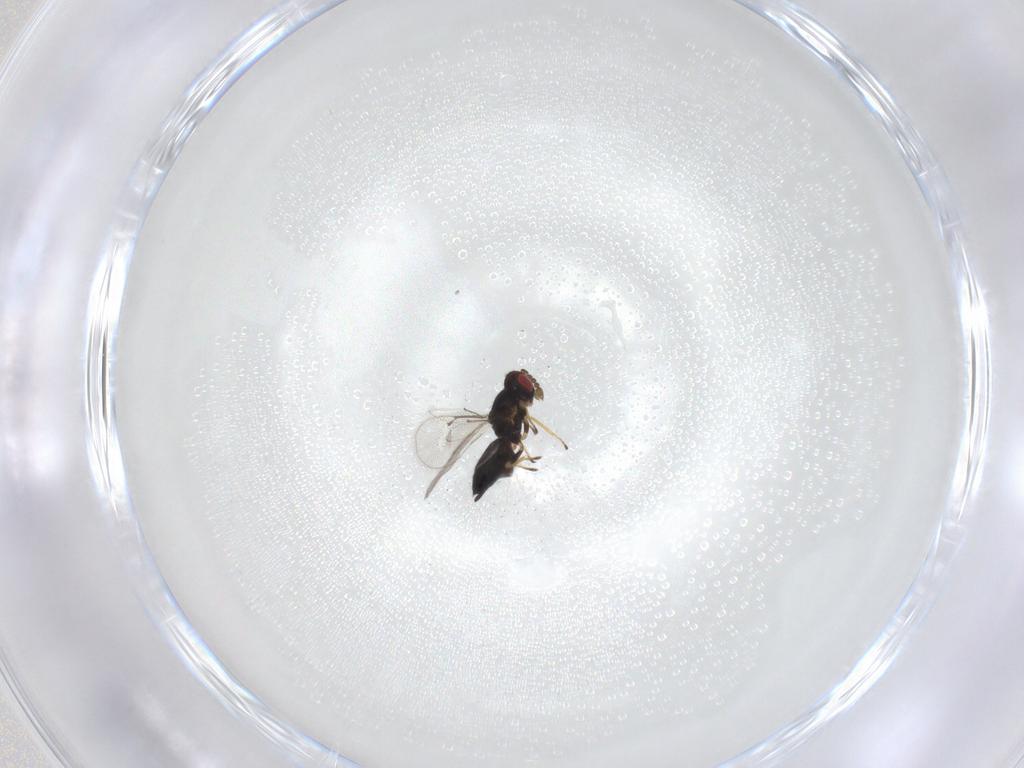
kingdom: Animalia
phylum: Arthropoda
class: Insecta
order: Hymenoptera
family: Eulophidae
